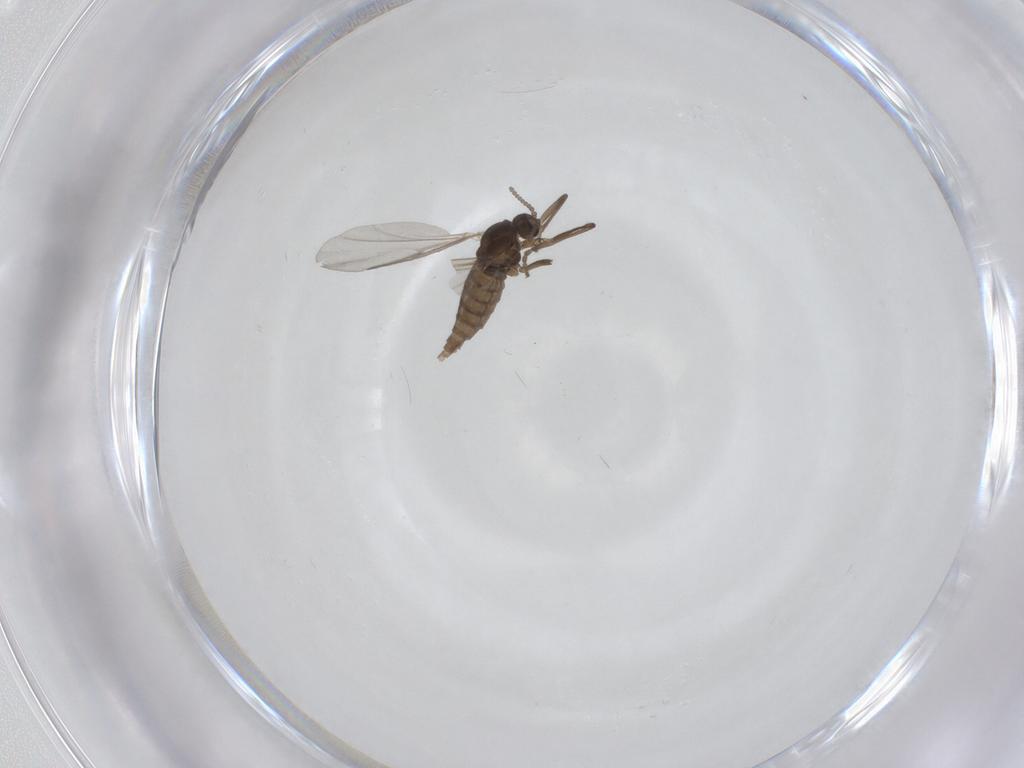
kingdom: Animalia
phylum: Arthropoda
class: Insecta
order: Diptera
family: Cecidomyiidae
